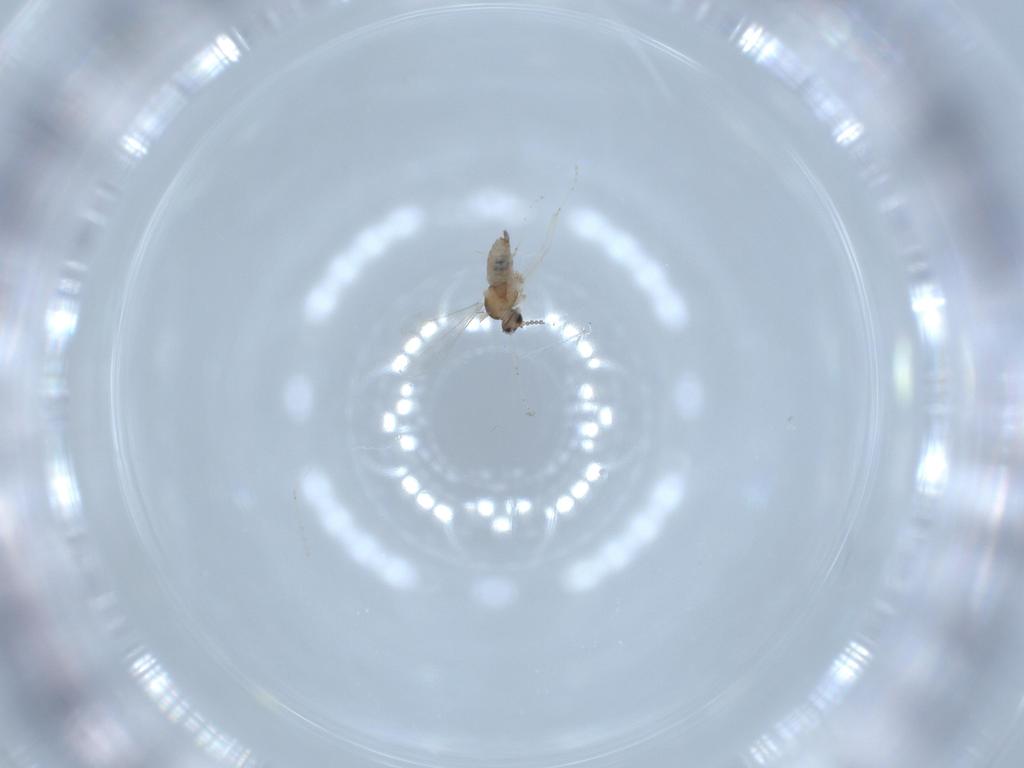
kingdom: Animalia
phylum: Arthropoda
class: Insecta
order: Diptera
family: Cecidomyiidae
